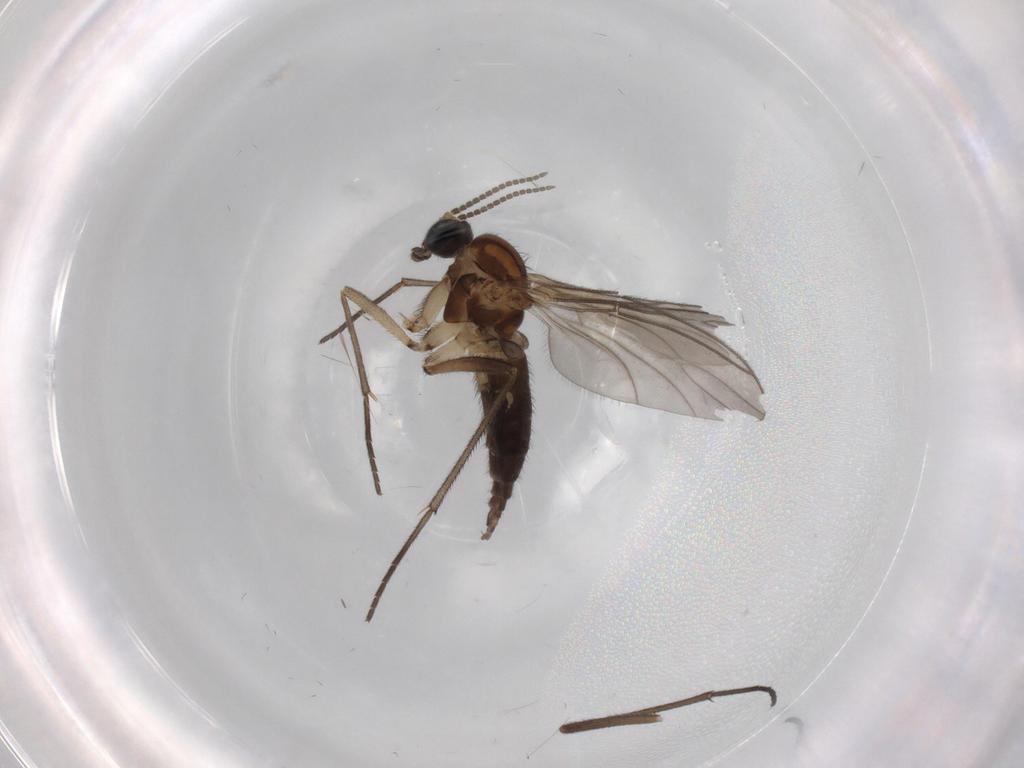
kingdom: Animalia
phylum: Arthropoda
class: Insecta
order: Diptera
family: Sciaridae
